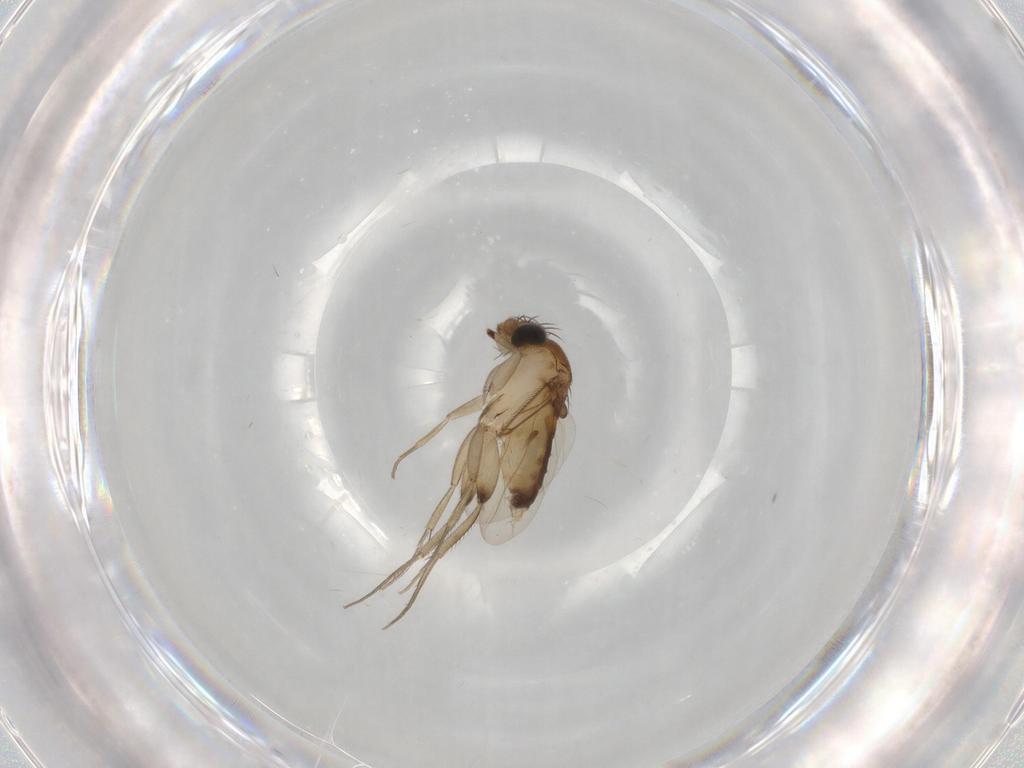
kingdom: Animalia
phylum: Arthropoda
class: Insecta
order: Diptera
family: Phoridae
